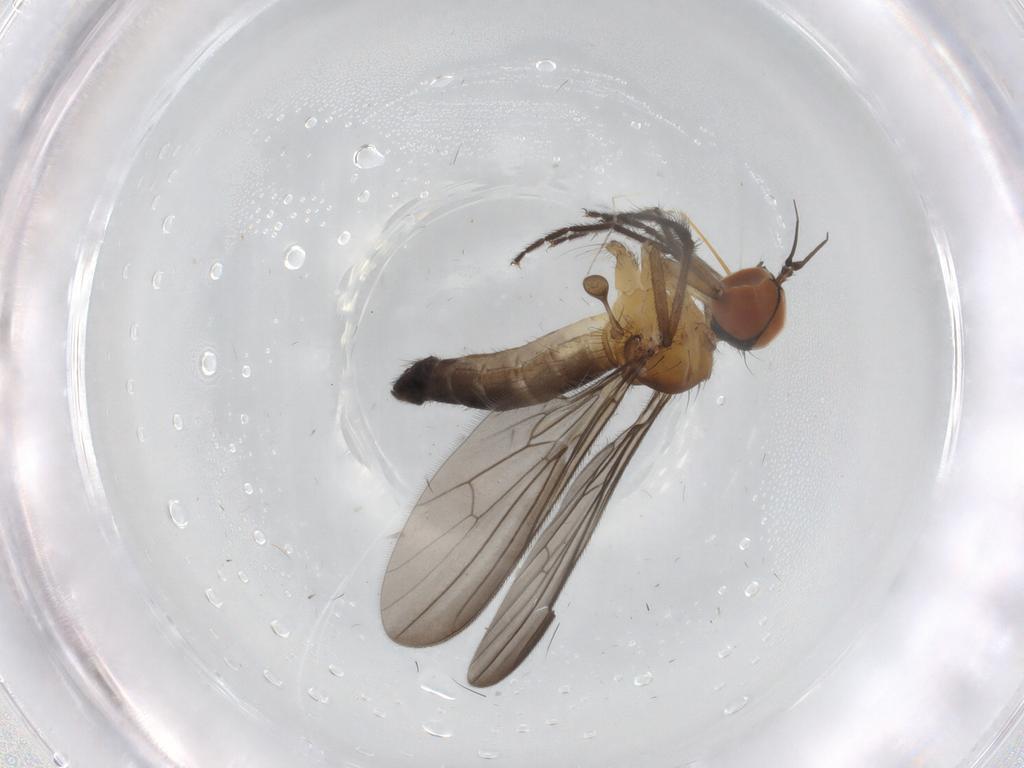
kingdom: Animalia
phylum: Arthropoda
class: Insecta
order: Diptera
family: Empididae
